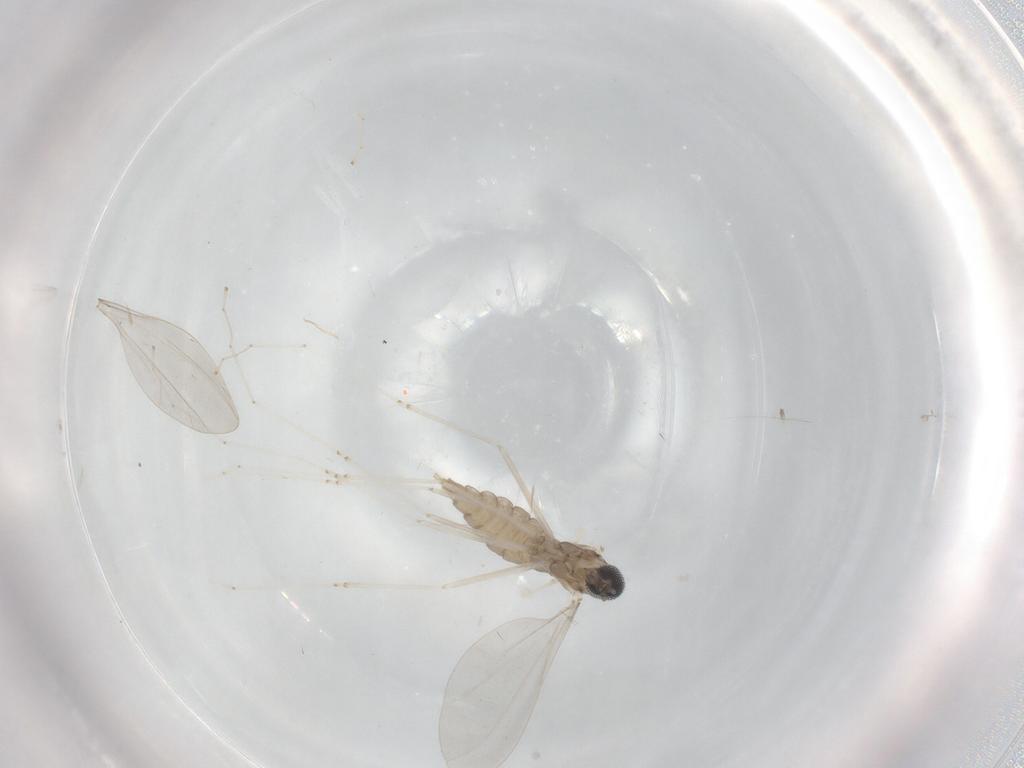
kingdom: Animalia
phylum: Arthropoda
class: Insecta
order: Diptera
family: Cecidomyiidae
